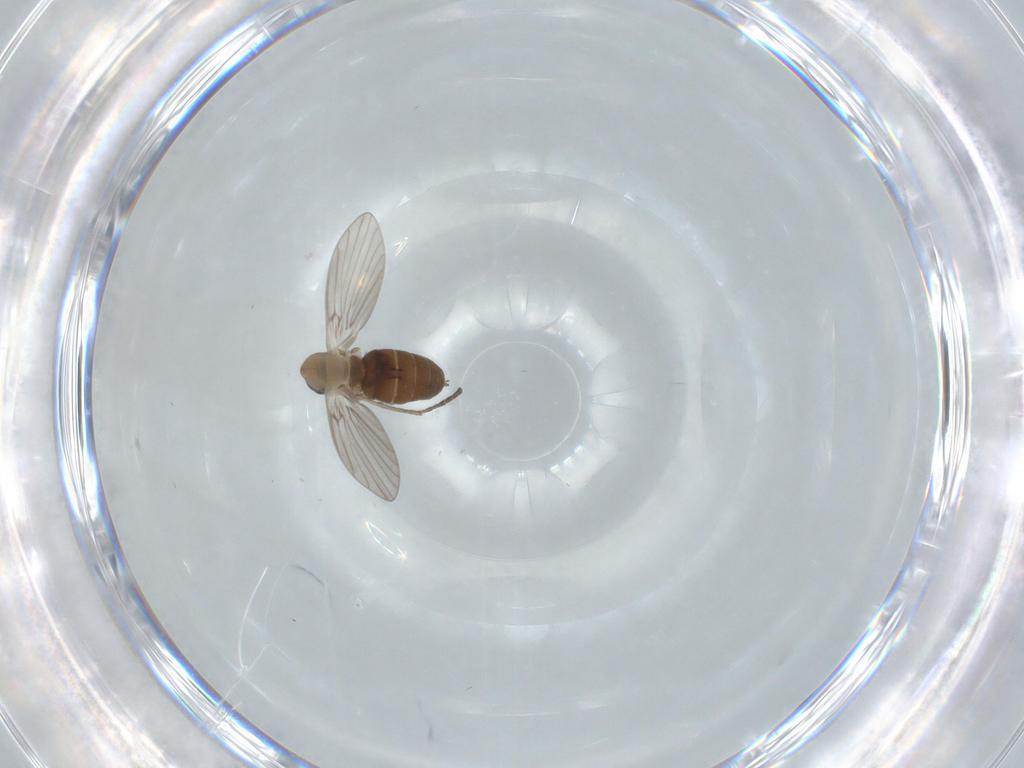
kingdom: Animalia
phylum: Arthropoda
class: Insecta
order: Diptera
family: Psychodidae
